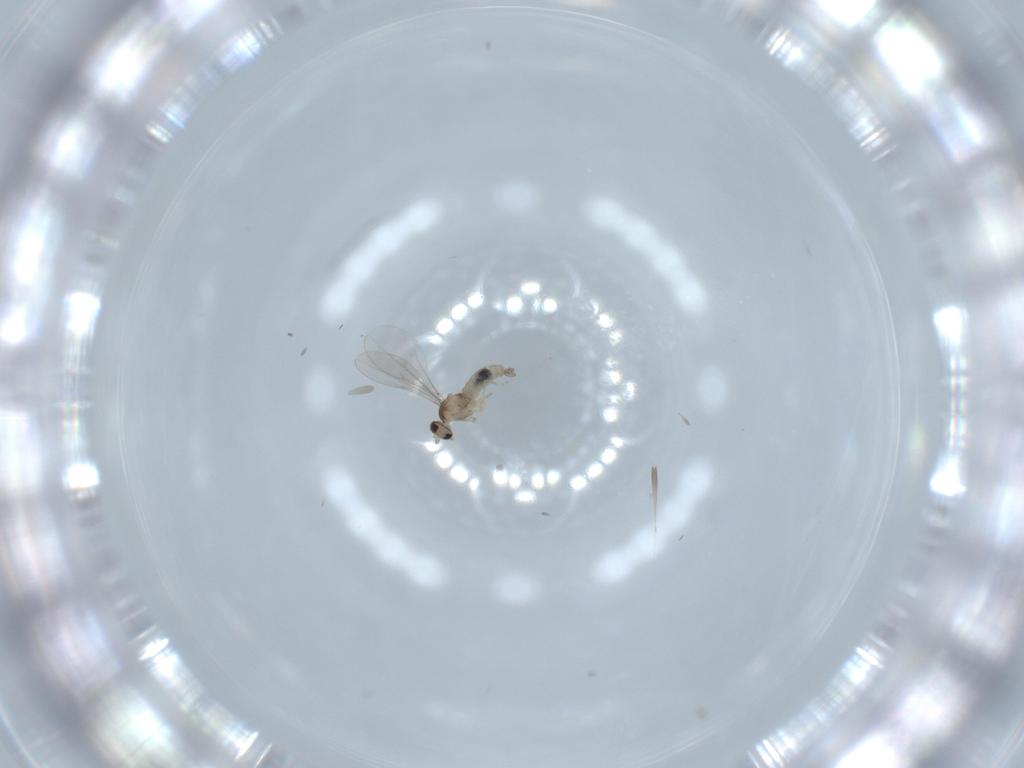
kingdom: Animalia
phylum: Arthropoda
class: Insecta
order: Diptera
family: Cecidomyiidae
